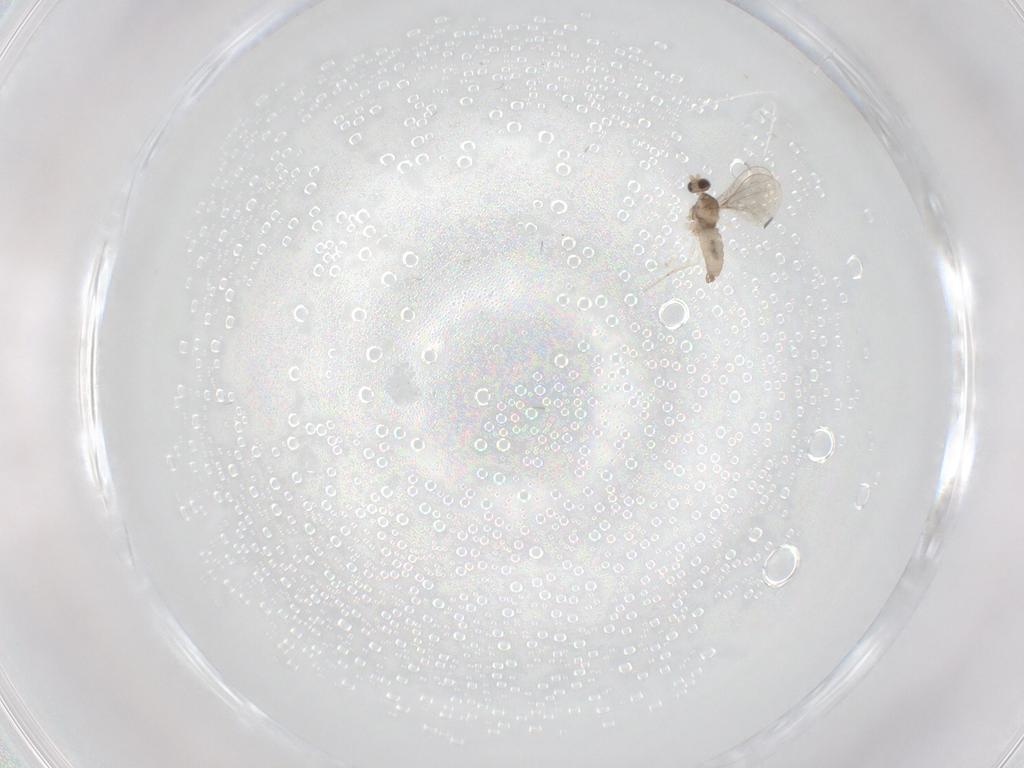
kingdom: Animalia
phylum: Arthropoda
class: Insecta
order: Diptera
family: Cecidomyiidae
